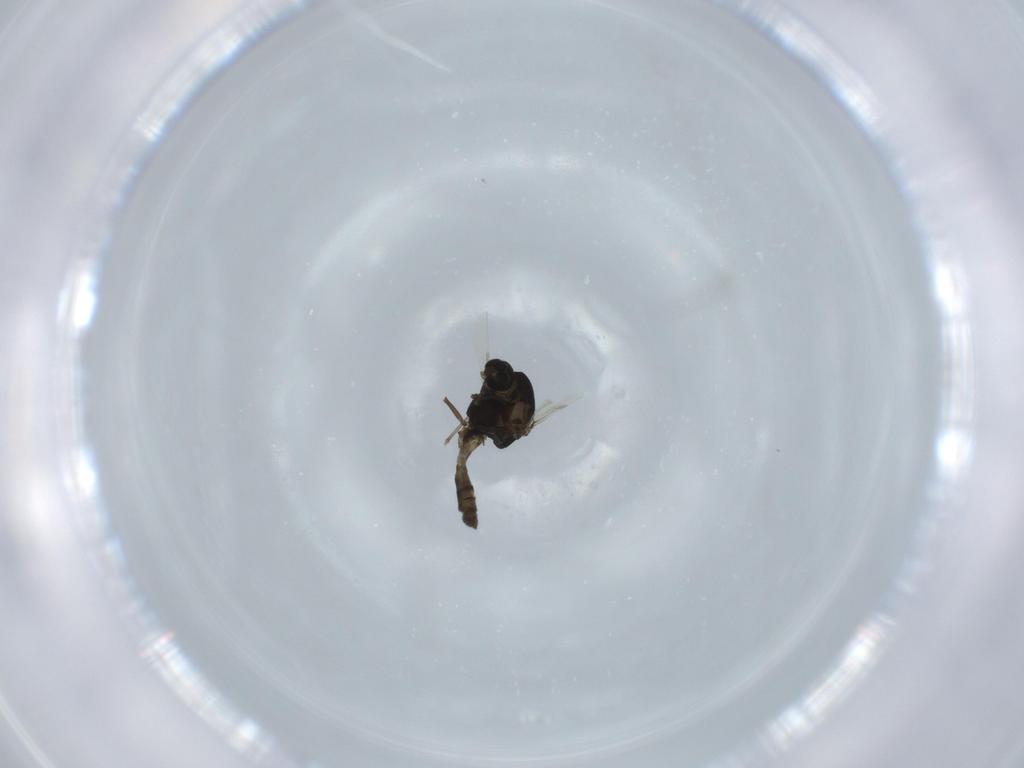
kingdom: Animalia
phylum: Arthropoda
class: Insecta
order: Diptera
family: Chironomidae
